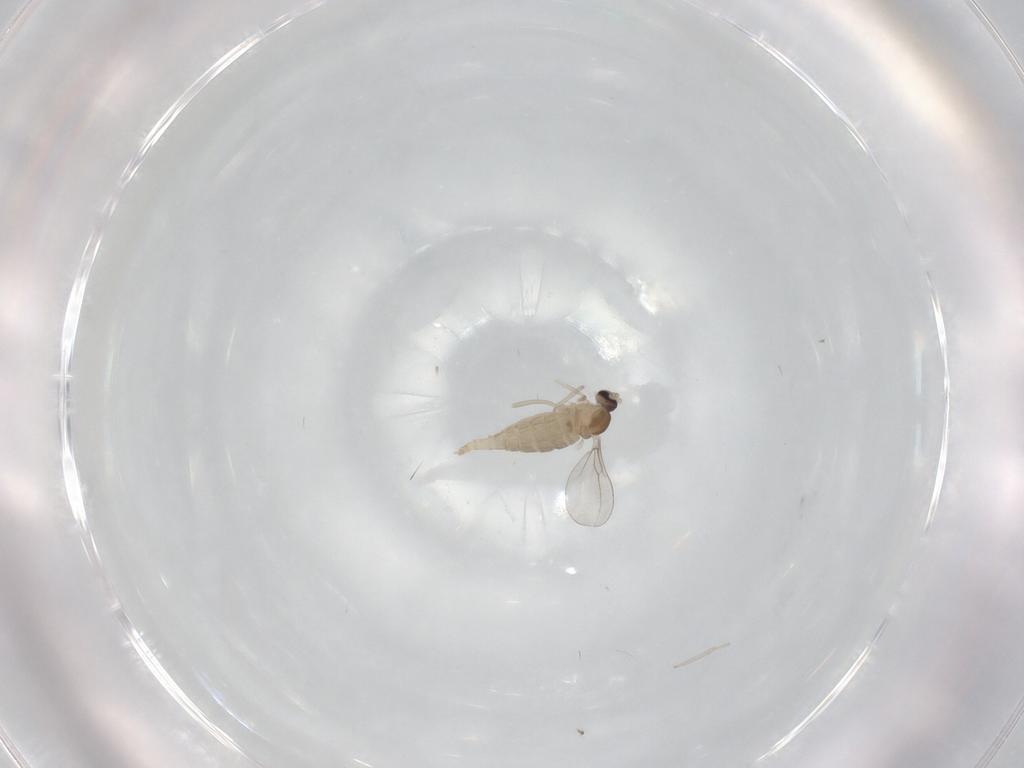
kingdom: Animalia
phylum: Arthropoda
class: Insecta
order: Diptera
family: Cecidomyiidae
